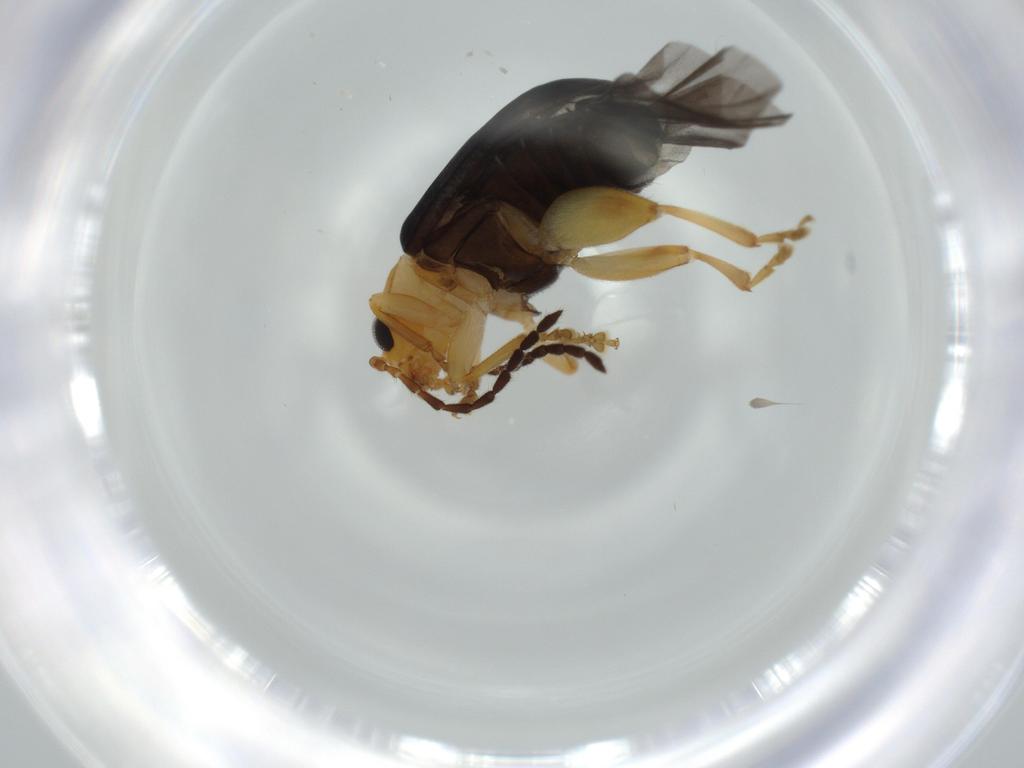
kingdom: Animalia
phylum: Arthropoda
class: Insecta
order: Coleoptera
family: Chrysomelidae
